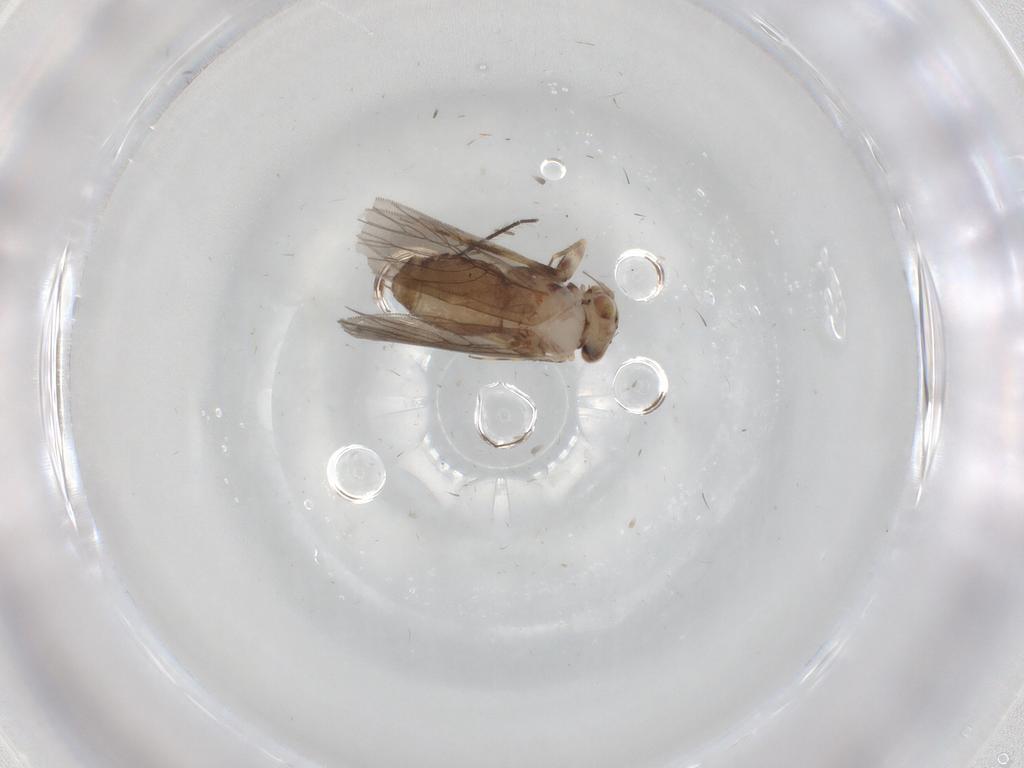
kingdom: Animalia
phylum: Arthropoda
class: Insecta
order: Psocodea
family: Lepidopsocidae
